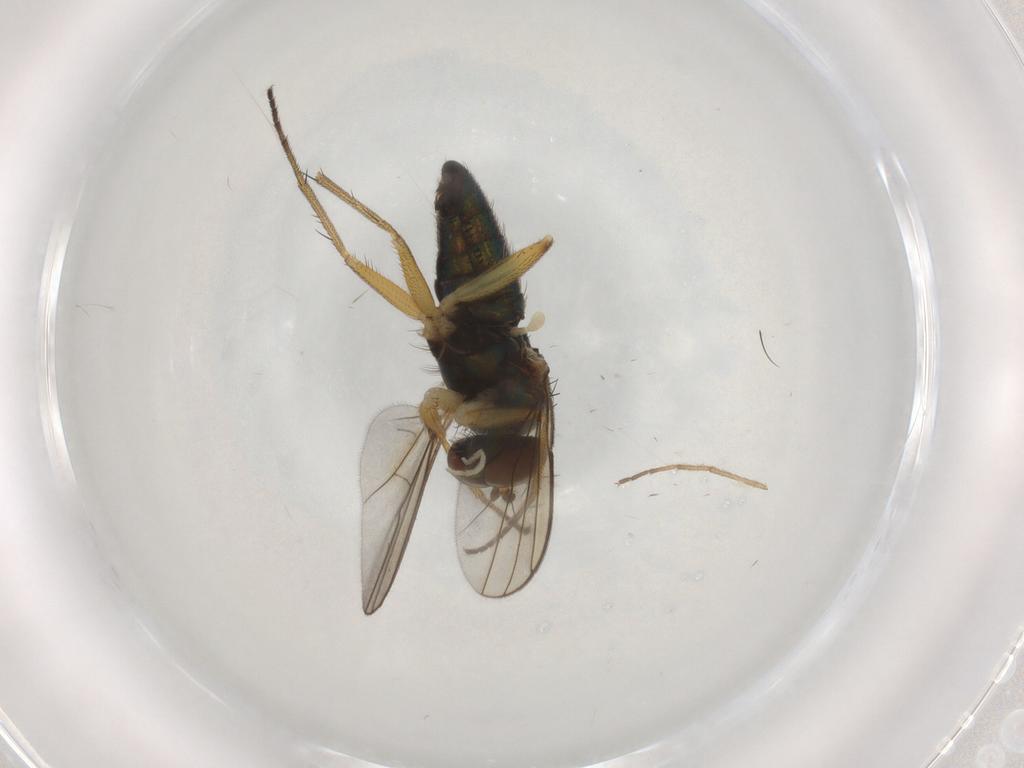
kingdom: Animalia
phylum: Arthropoda
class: Insecta
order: Diptera
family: Dolichopodidae
